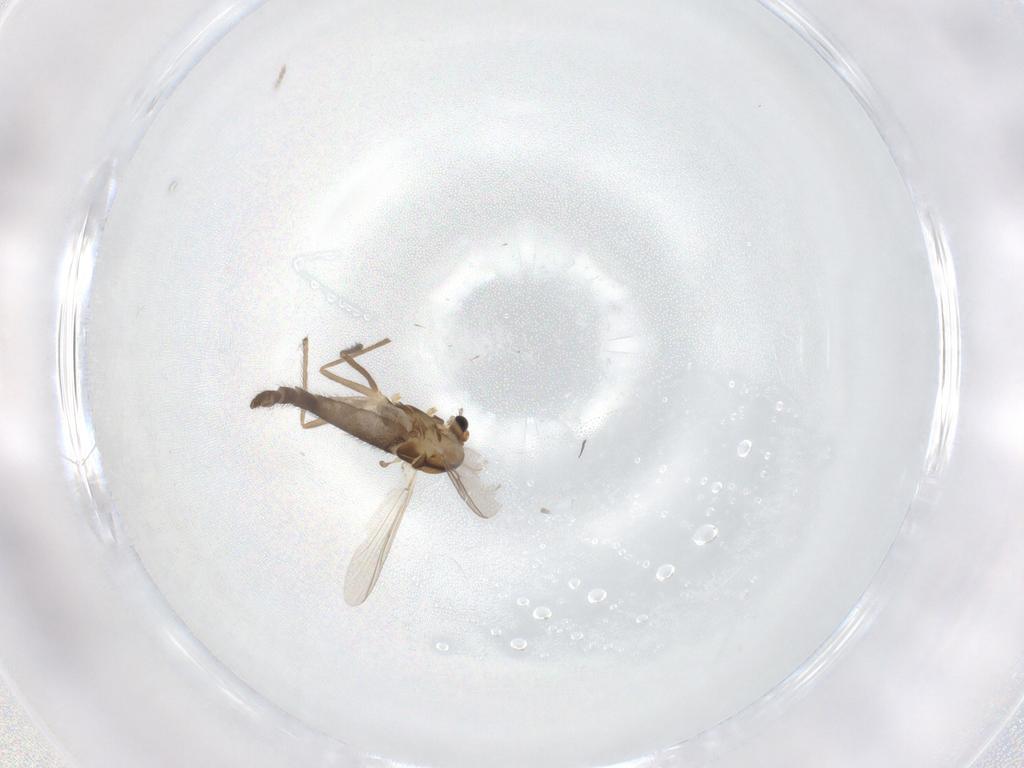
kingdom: Animalia
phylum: Arthropoda
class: Insecta
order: Diptera
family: Chironomidae
